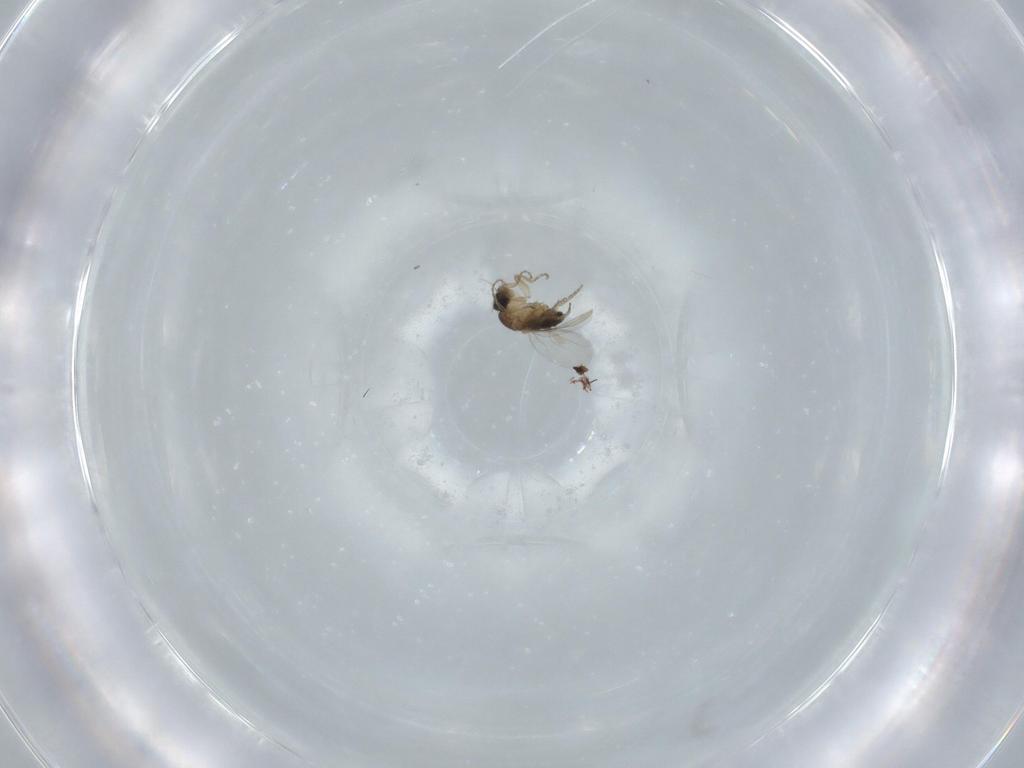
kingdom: Animalia
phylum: Arthropoda
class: Insecta
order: Diptera
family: Phoridae
